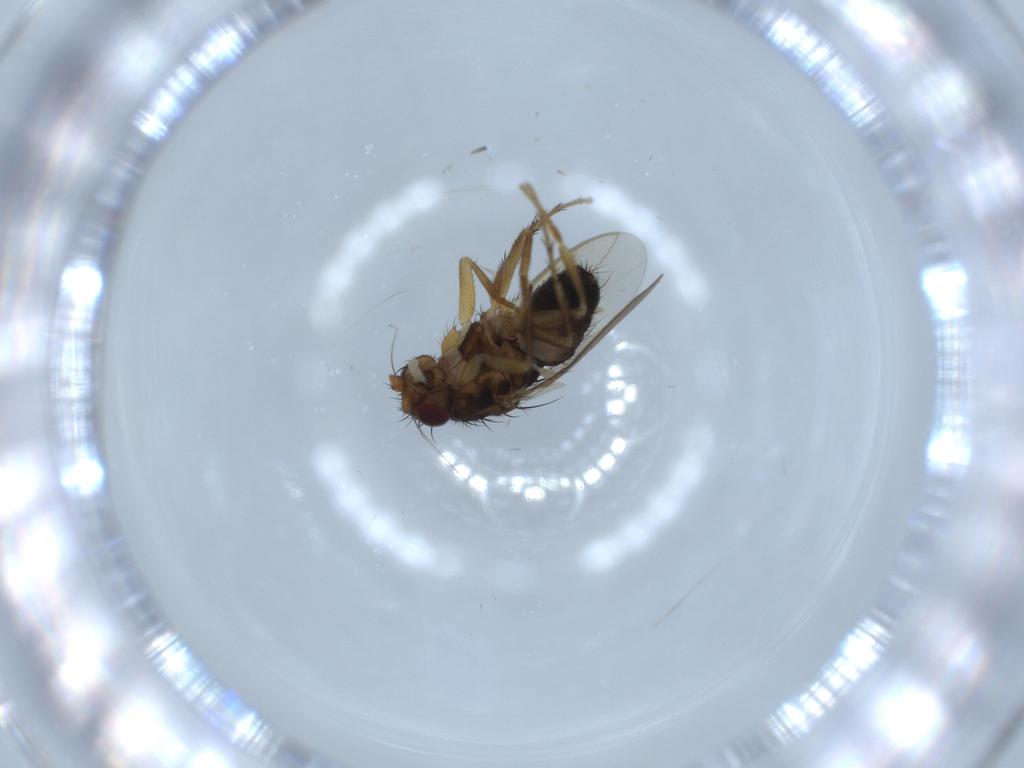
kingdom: Animalia
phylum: Arthropoda
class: Insecta
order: Diptera
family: Sphaeroceridae
